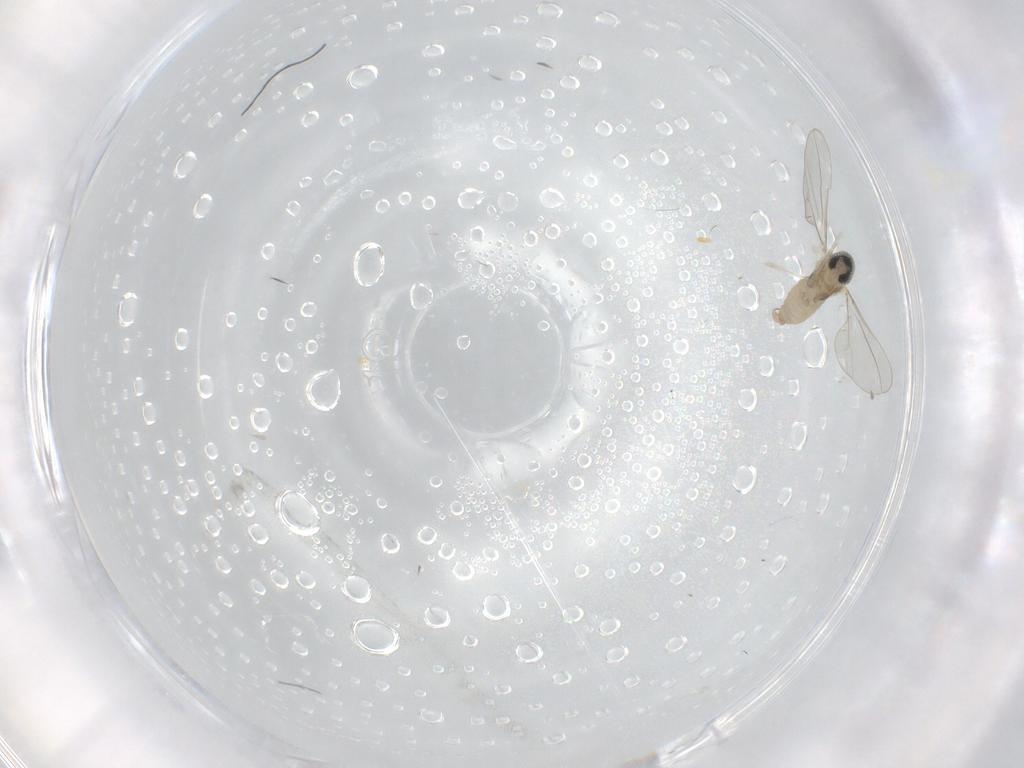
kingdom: Animalia
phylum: Arthropoda
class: Insecta
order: Diptera
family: Cecidomyiidae
